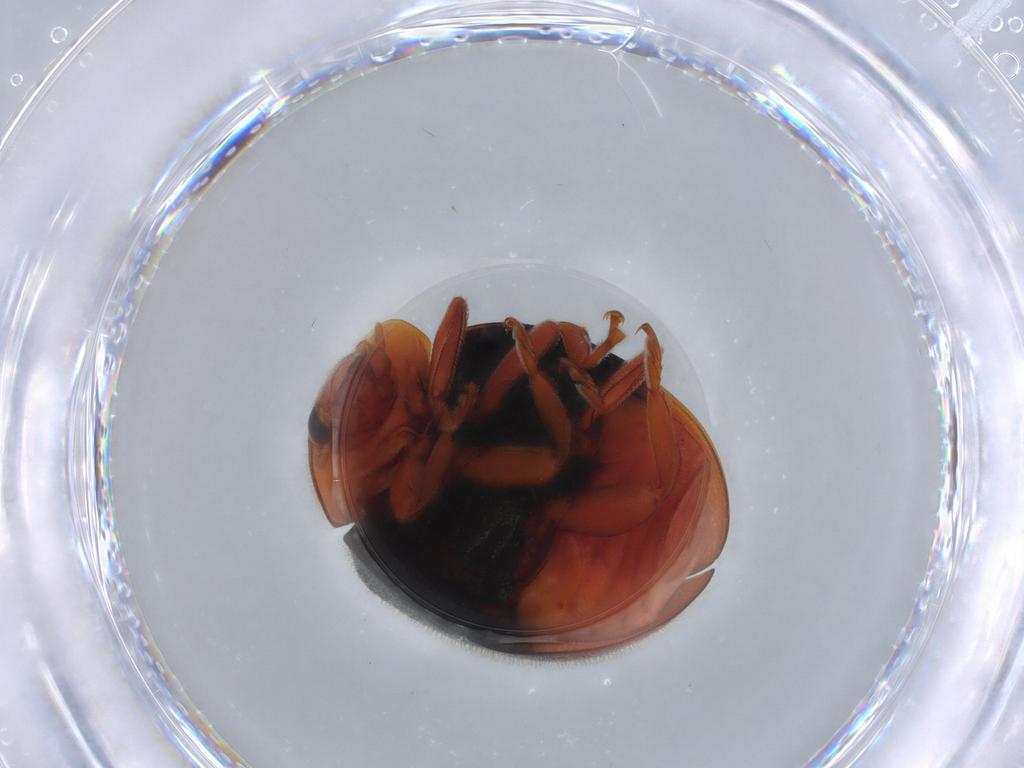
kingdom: Animalia
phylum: Arthropoda
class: Insecta
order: Coleoptera
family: Coccinellidae
